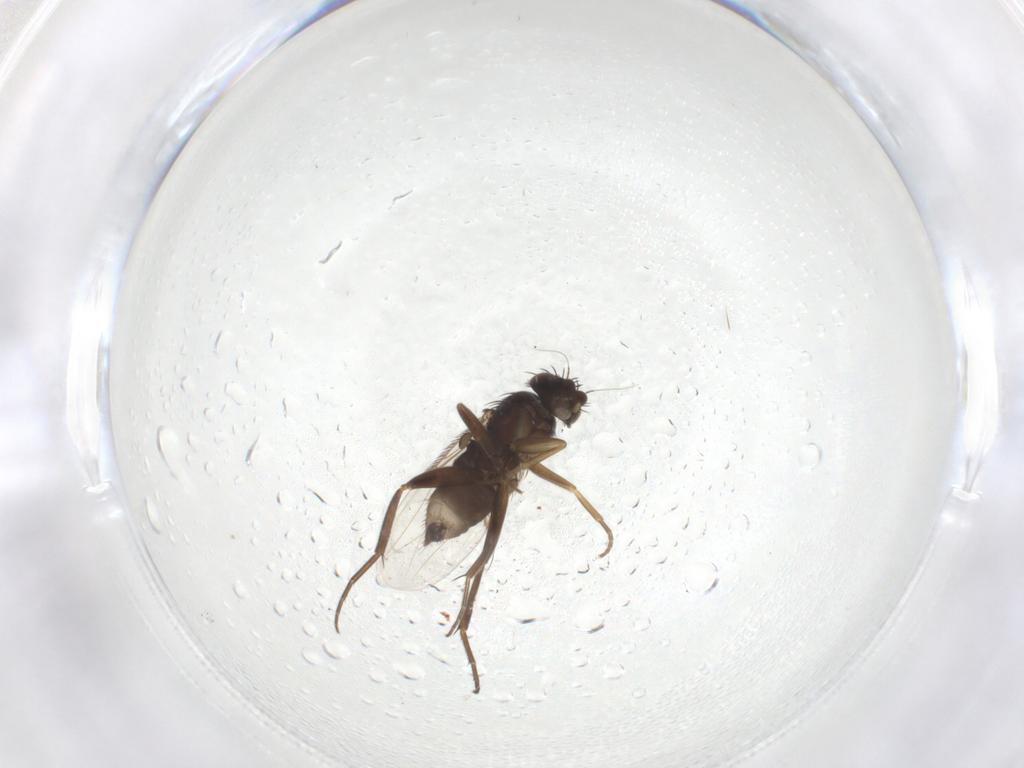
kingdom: Animalia
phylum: Arthropoda
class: Insecta
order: Diptera
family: Phoridae
